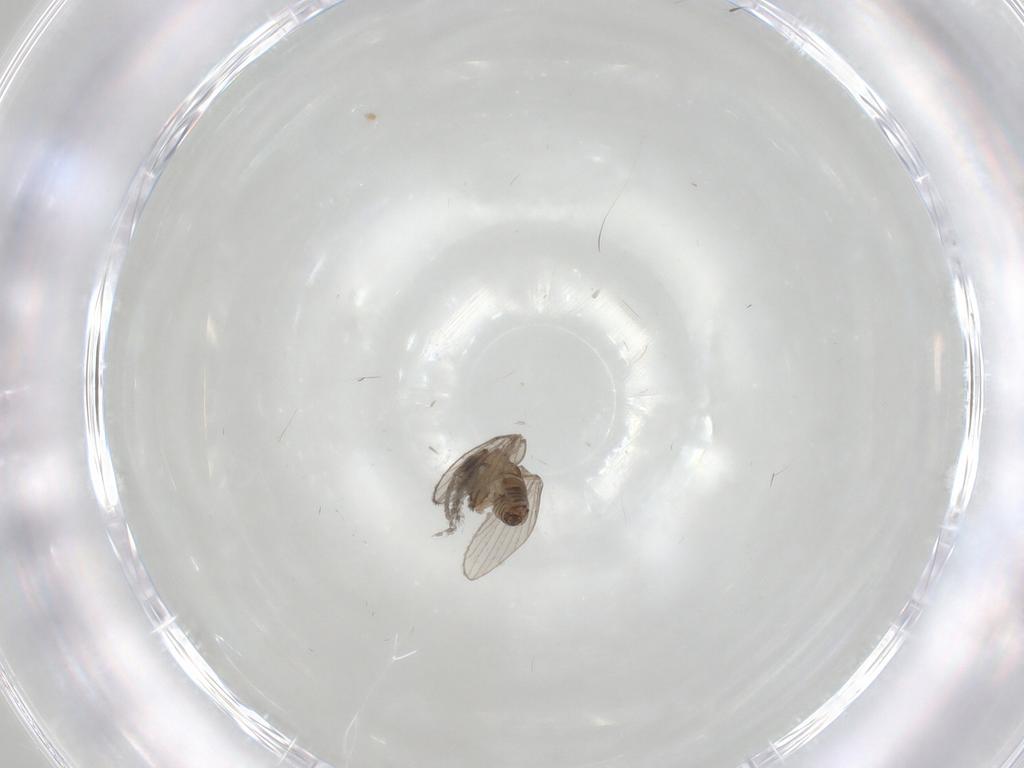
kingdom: Animalia
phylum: Arthropoda
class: Insecta
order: Diptera
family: Psychodidae
